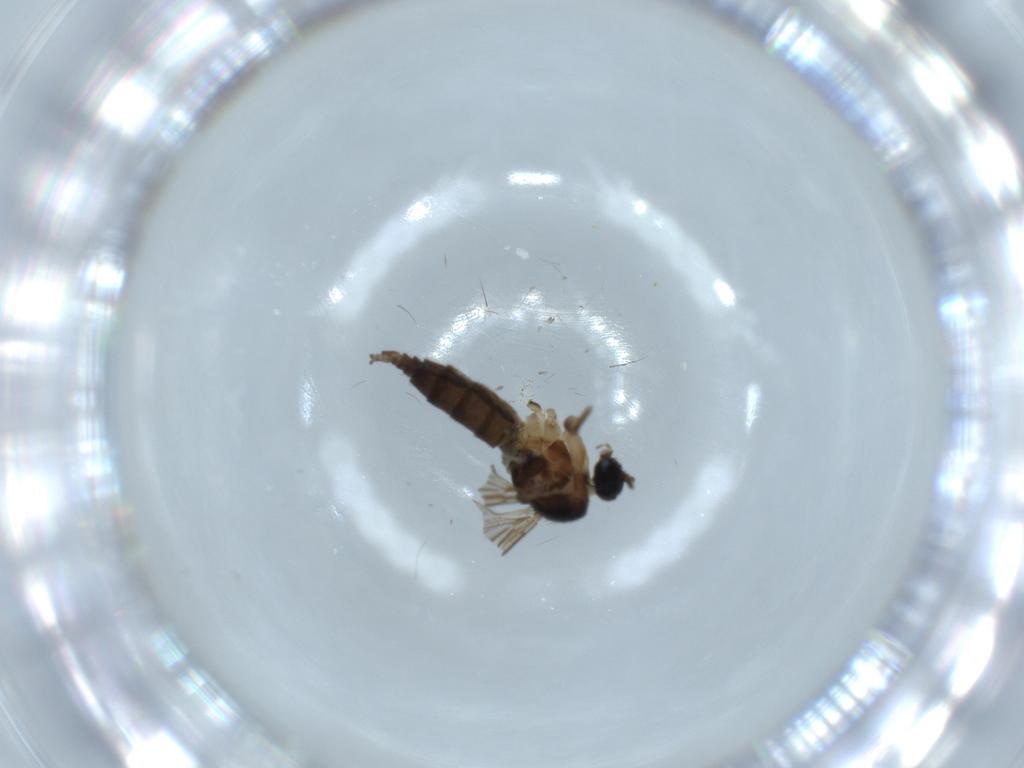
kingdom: Animalia
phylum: Arthropoda
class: Insecta
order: Diptera
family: Sciaridae
